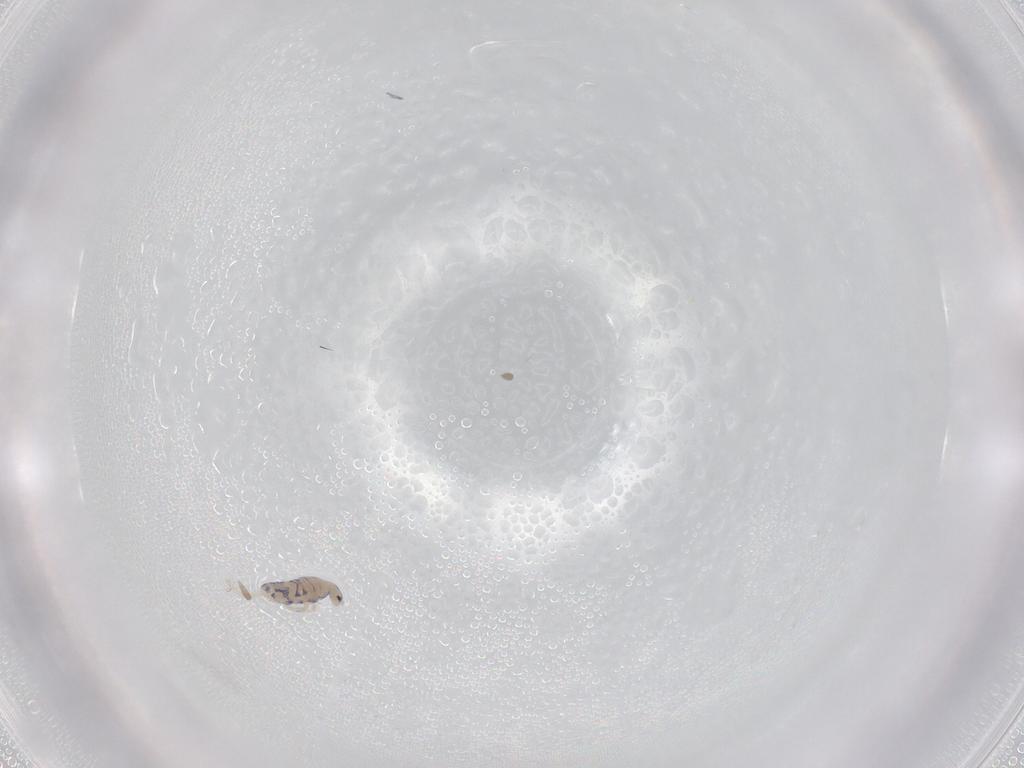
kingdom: Animalia
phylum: Arthropoda
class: Collembola
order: Entomobryomorpha
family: Entomobryidae
